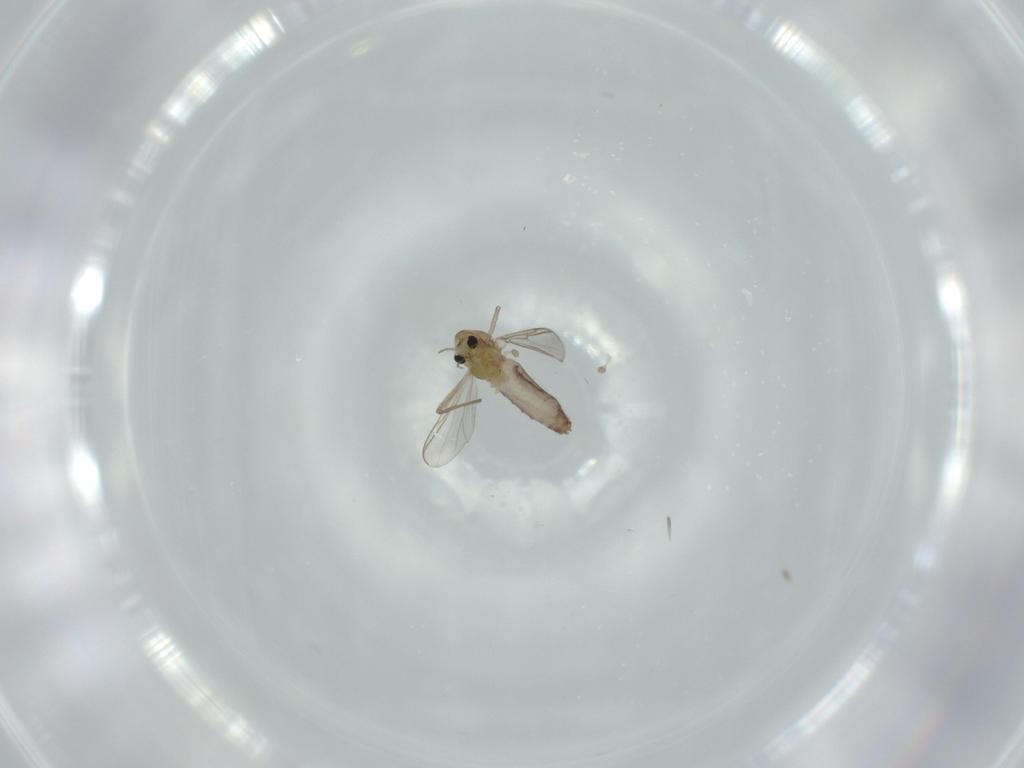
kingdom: Animalia
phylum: Arthropoda
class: Insecta
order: Diptera
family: Chironomidae
